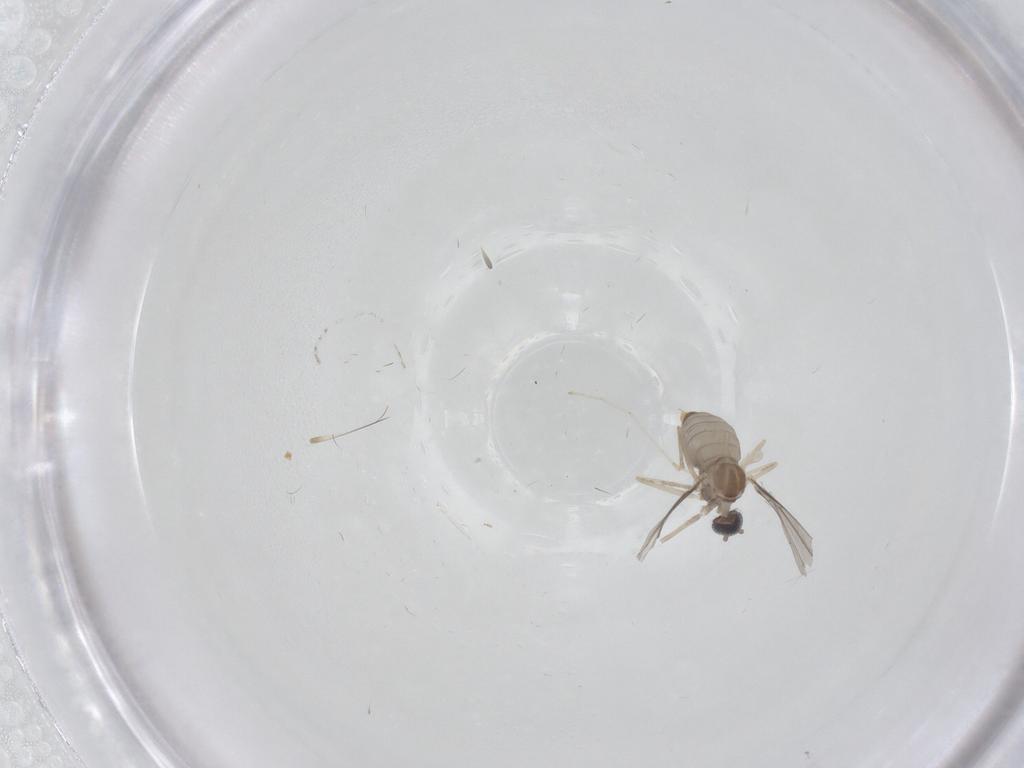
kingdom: Animalia
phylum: Arthropoda
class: Insecta
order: Diptera
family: Cecidomyiidae
